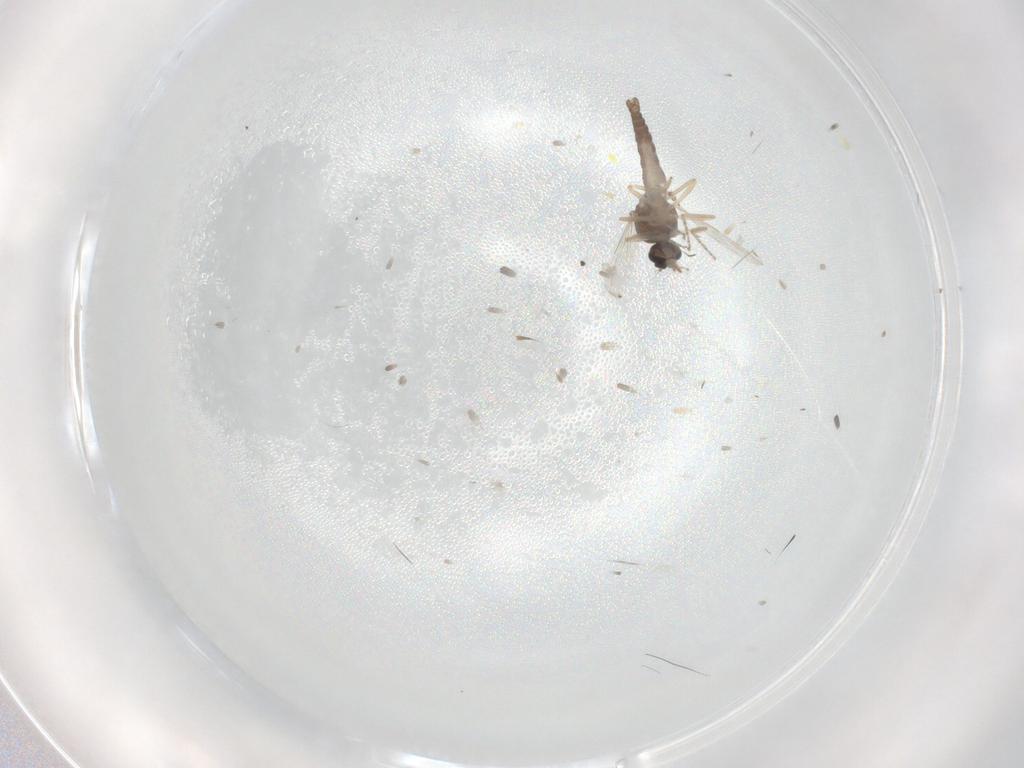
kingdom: Animalia
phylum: Arthropoda
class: Insecta
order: Diptera
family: Ceratopogonidae
